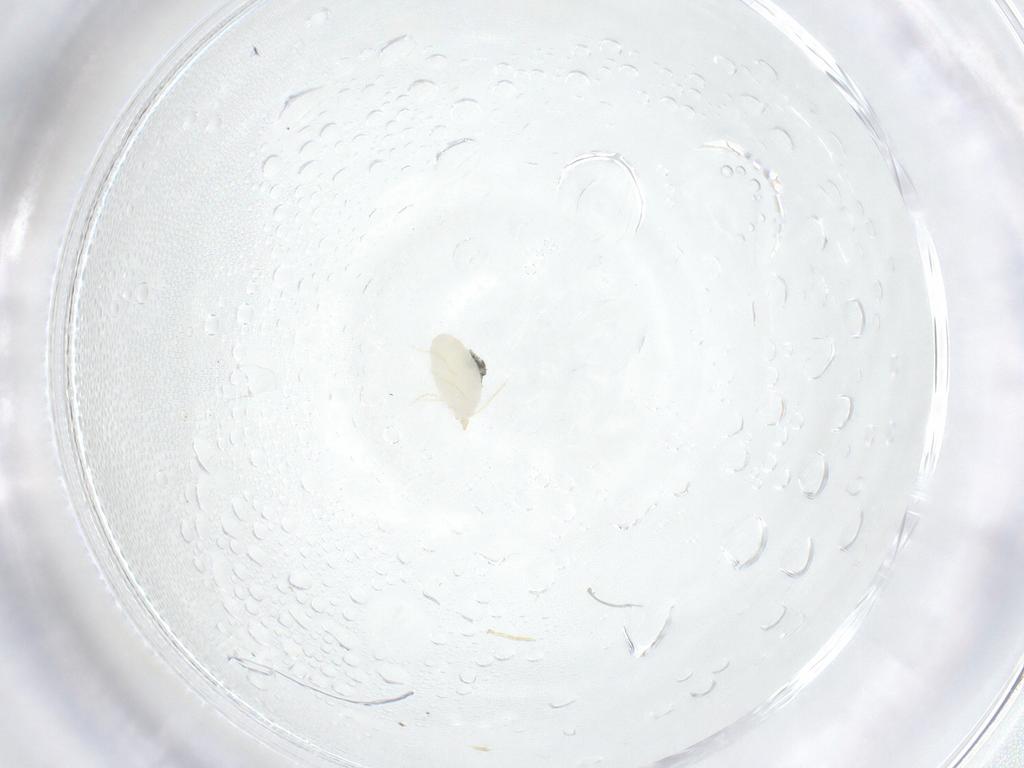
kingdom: Animalia
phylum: Arthropoda
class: Arachnida
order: Trombidiformes
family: Erythraeidae
